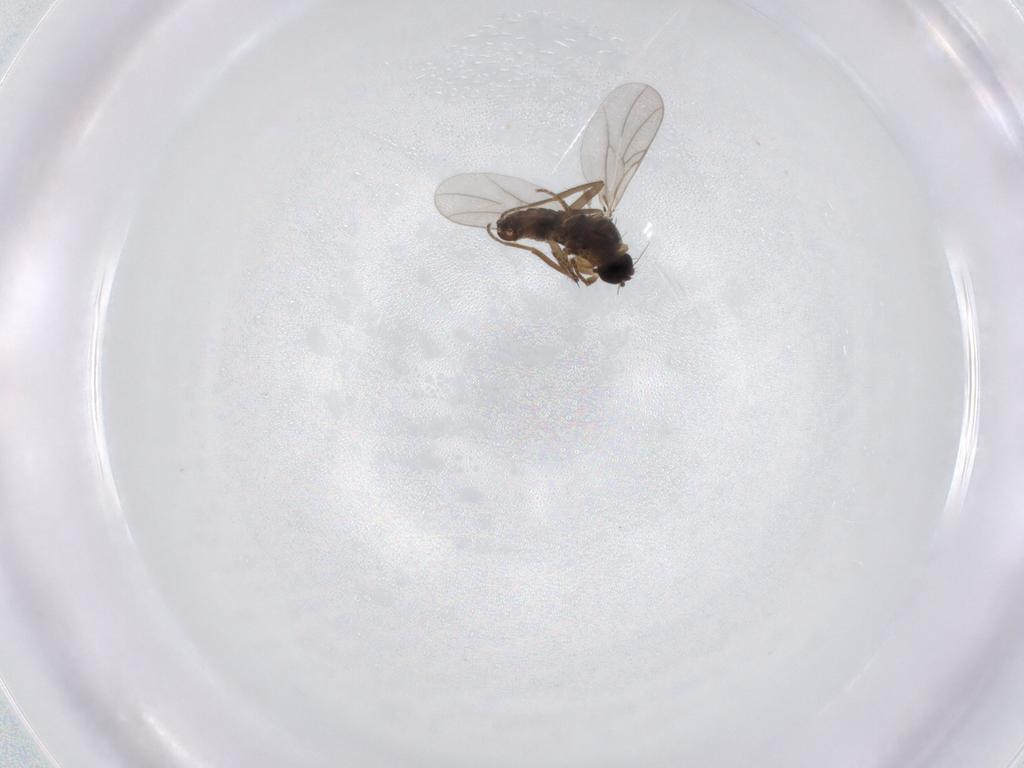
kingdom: Animalia
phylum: Arthropoda
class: Insecta
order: Diptera
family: Hybotidae
